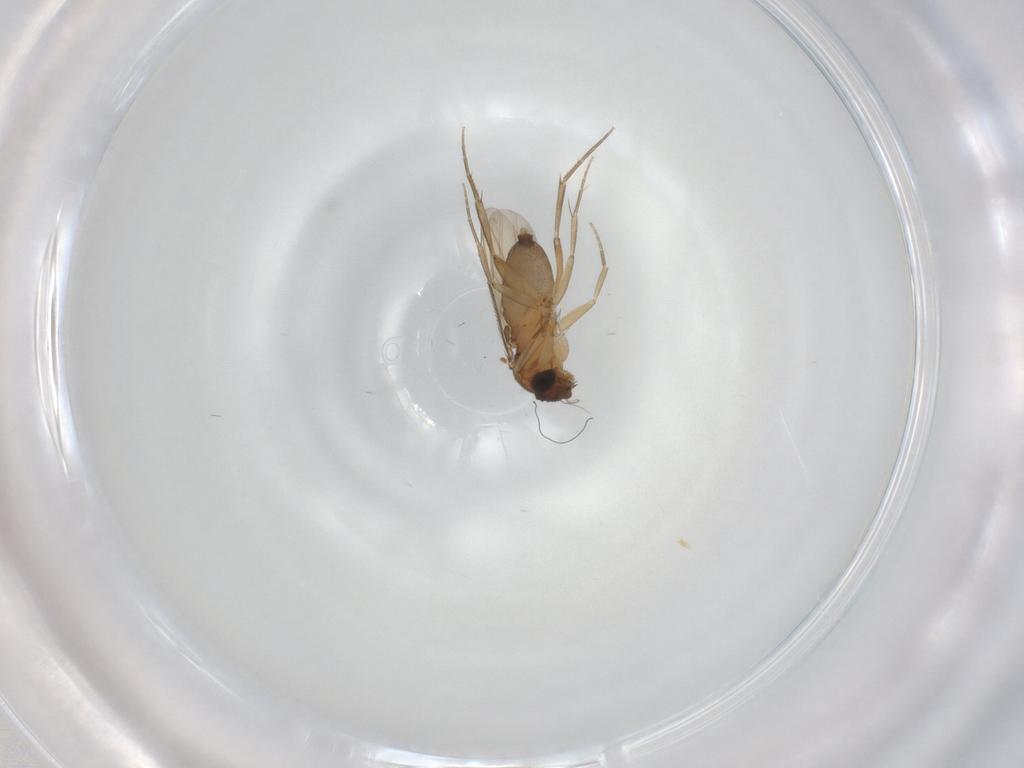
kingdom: Animalia
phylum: Arthropoda
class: Insecta
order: Diptera
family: Phoridae
